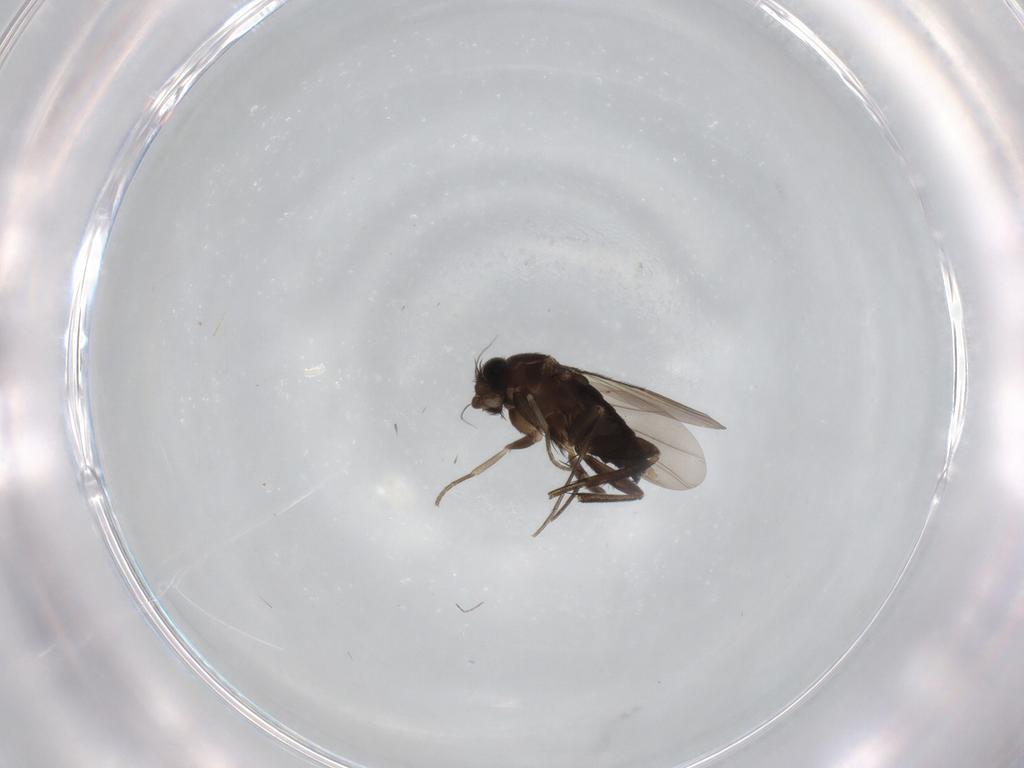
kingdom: Animalia
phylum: Arthropoda
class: Insecta
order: Diptera
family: Phoridae
